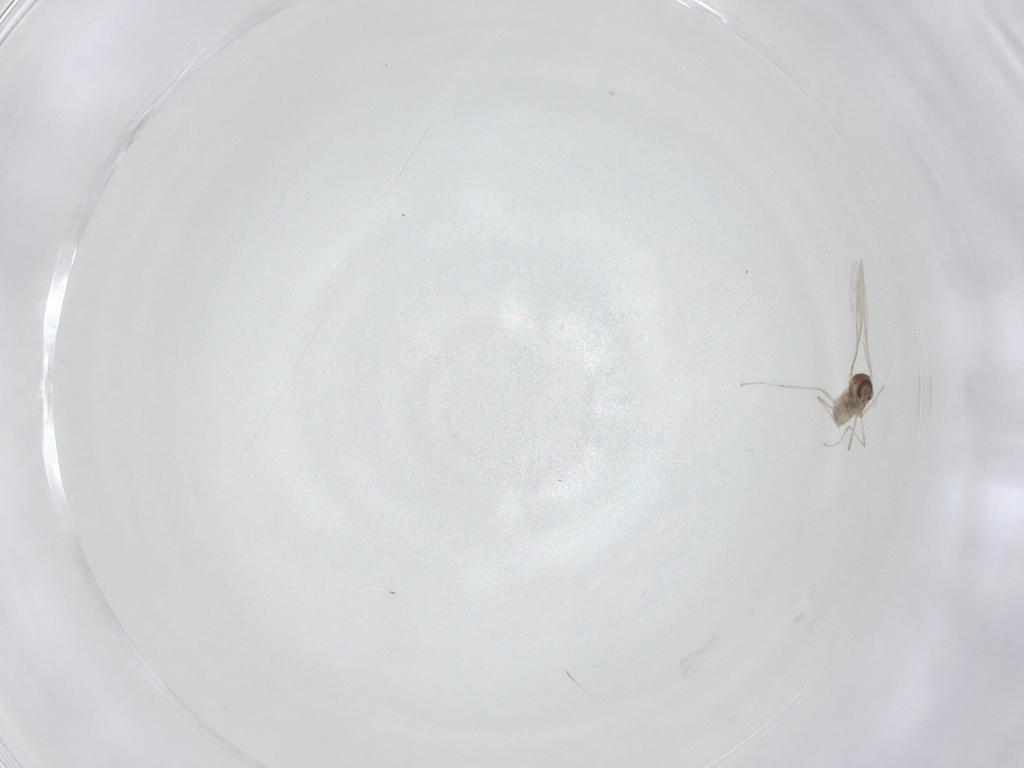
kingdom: Animalia
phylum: Arthropoda
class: Insecta
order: Diptera
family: Cecidomyiidae
